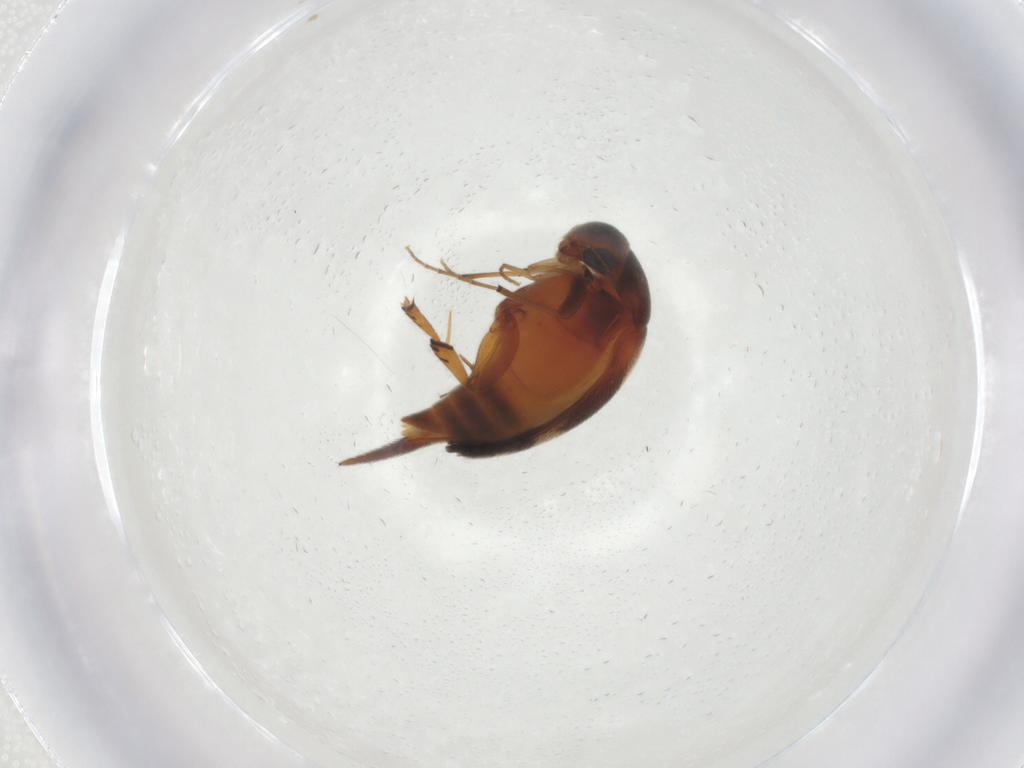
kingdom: Animalia
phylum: Arthropoda
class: Insecta
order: Coleoptera
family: Mordellidae
